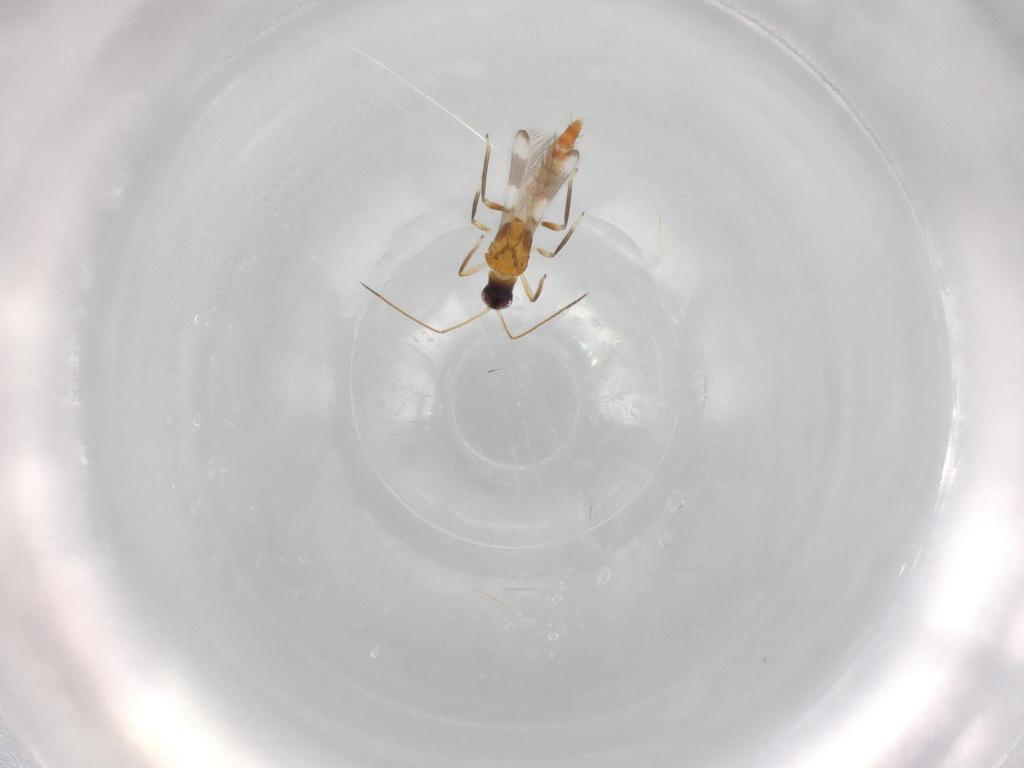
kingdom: Animalia
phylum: Arthropoda
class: Insecta
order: Thysanoptera
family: Aeolothripidae
